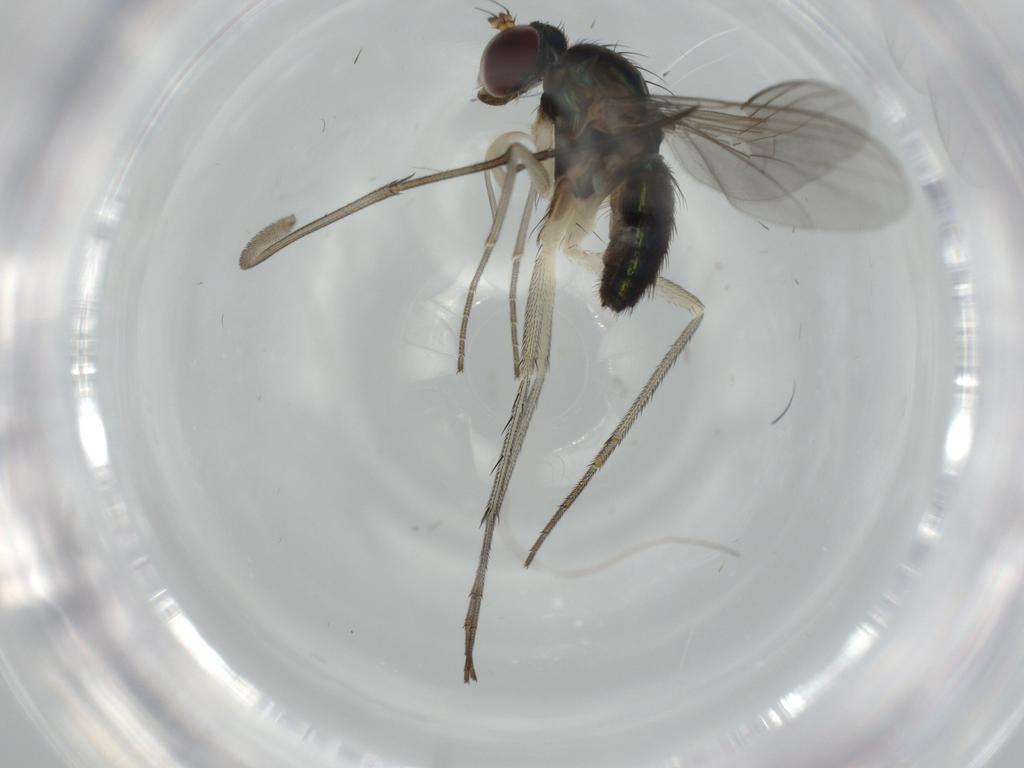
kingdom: Animalia
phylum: Arthropoda
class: Insecta
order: Diptera
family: Dolichopodidae
